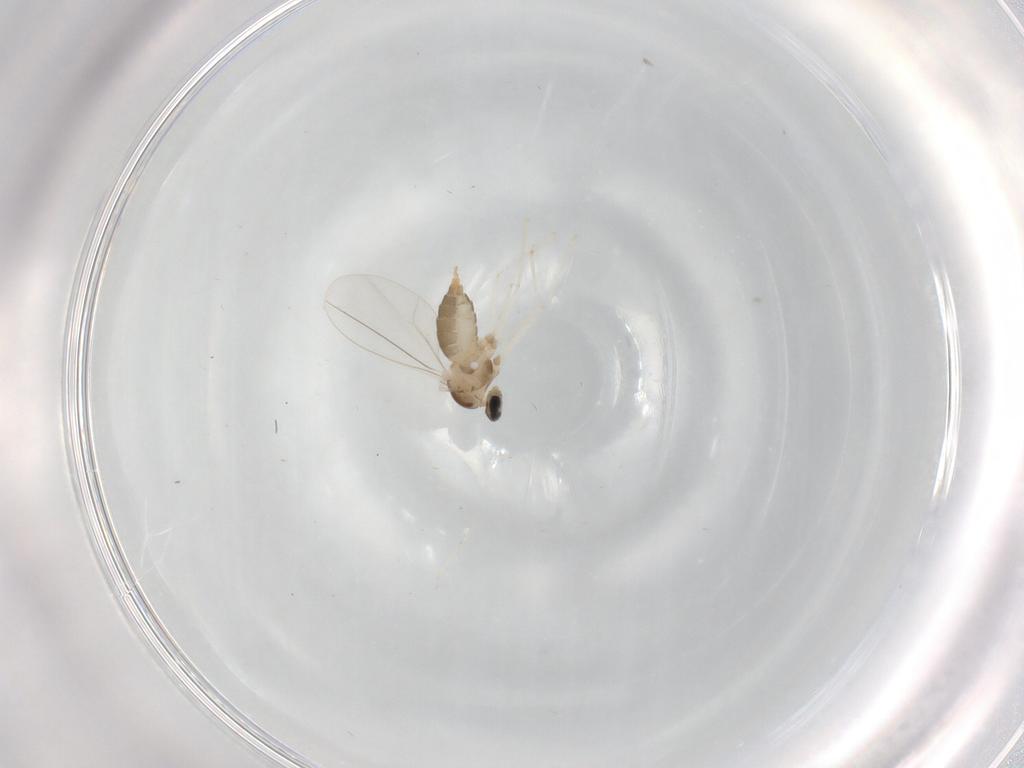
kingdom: Animalia
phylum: Arthropoda
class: Insecta
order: Diptera
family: Cecidomyiidae
